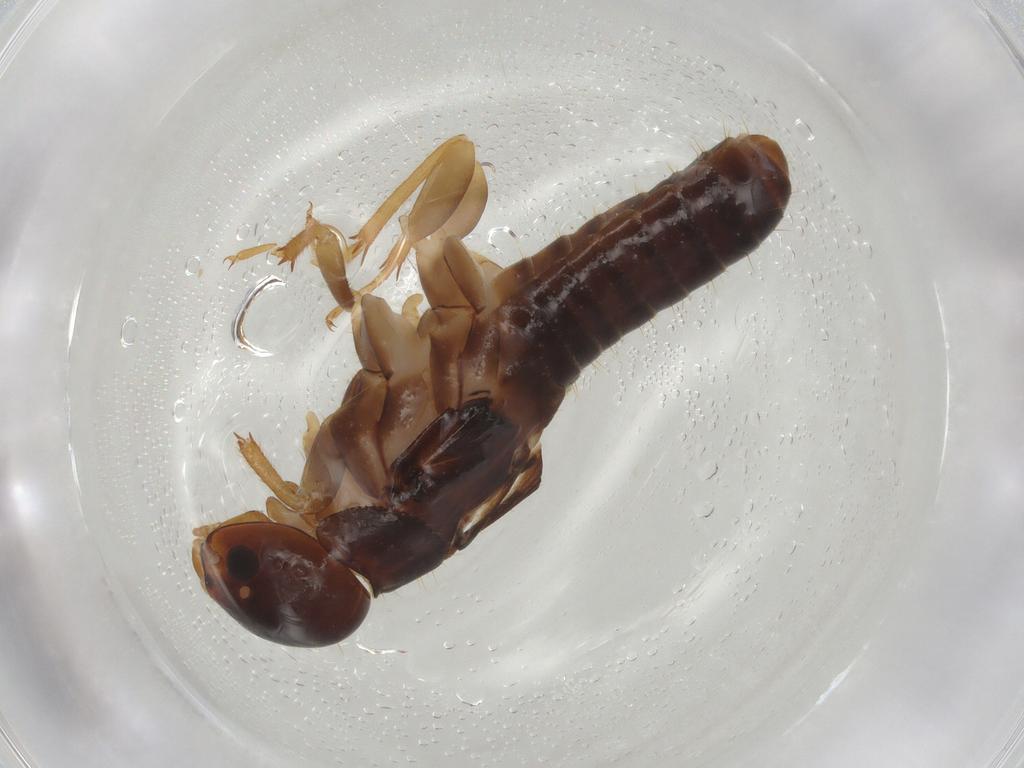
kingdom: Animalia
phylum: Arthropoda
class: Insecta
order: Blattodea
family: Kalotermitidae
